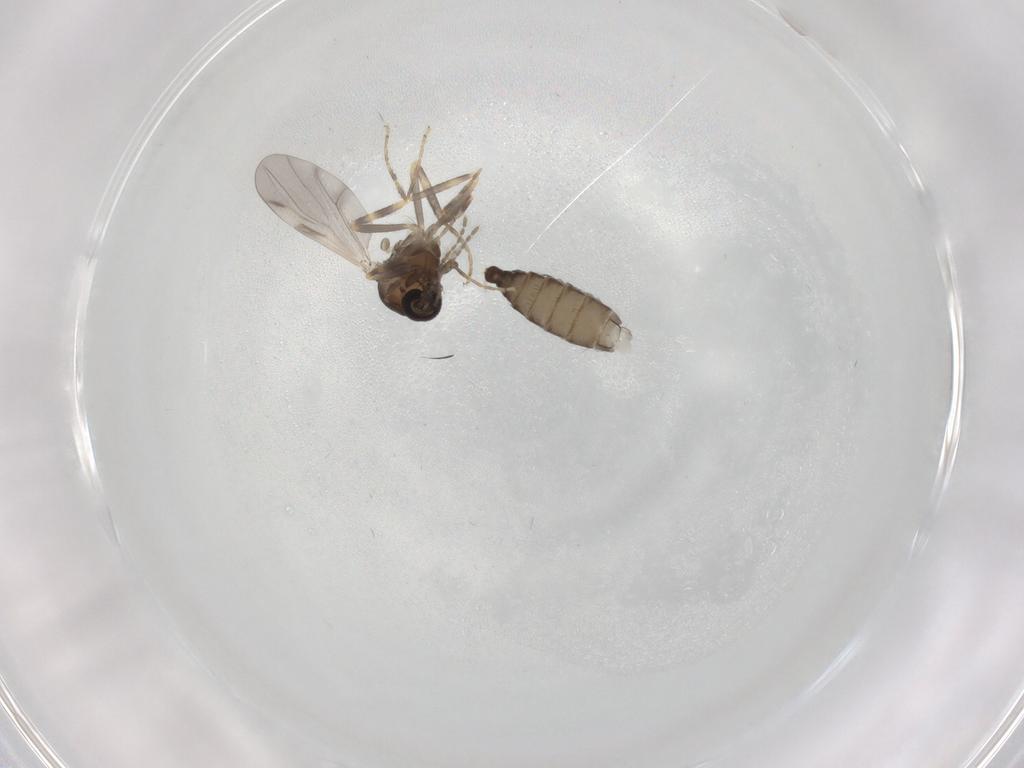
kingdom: Animalia
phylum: Arthropoda
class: Insecta
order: Diptera
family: Ceratopogonidae
